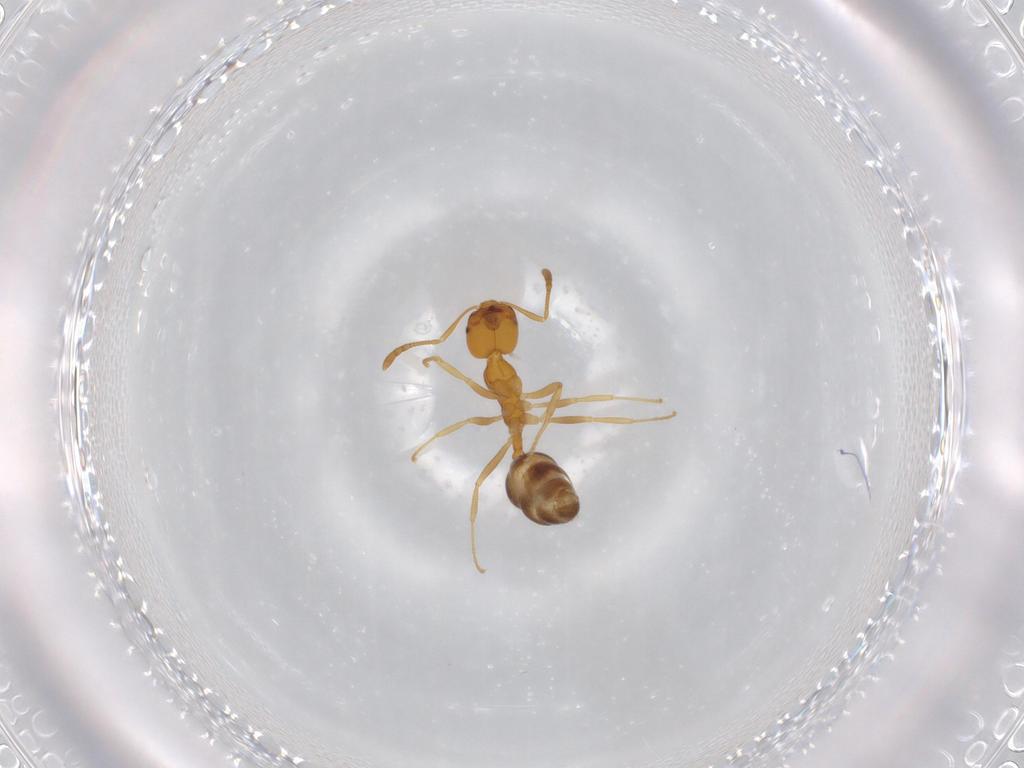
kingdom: Animalia
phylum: Arthropoda
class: Insecta
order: Hymenoptera
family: Formicidae
